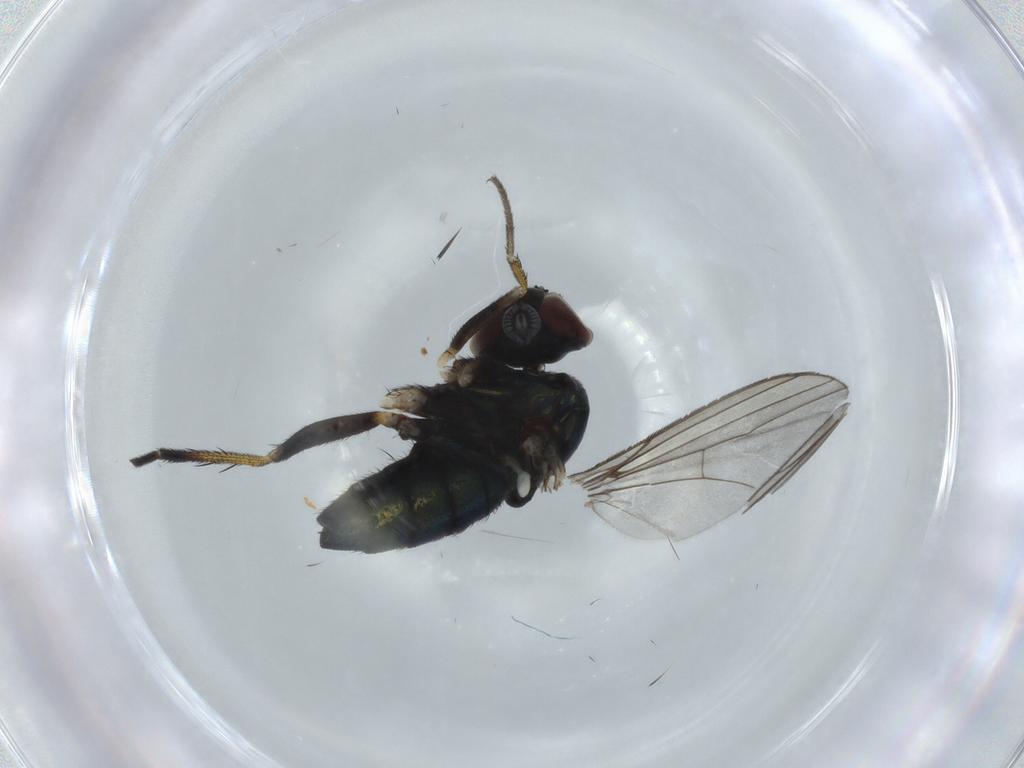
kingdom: Animalia
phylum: Arthropoda
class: Insecta
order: Diptera
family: Dolichopodidae
